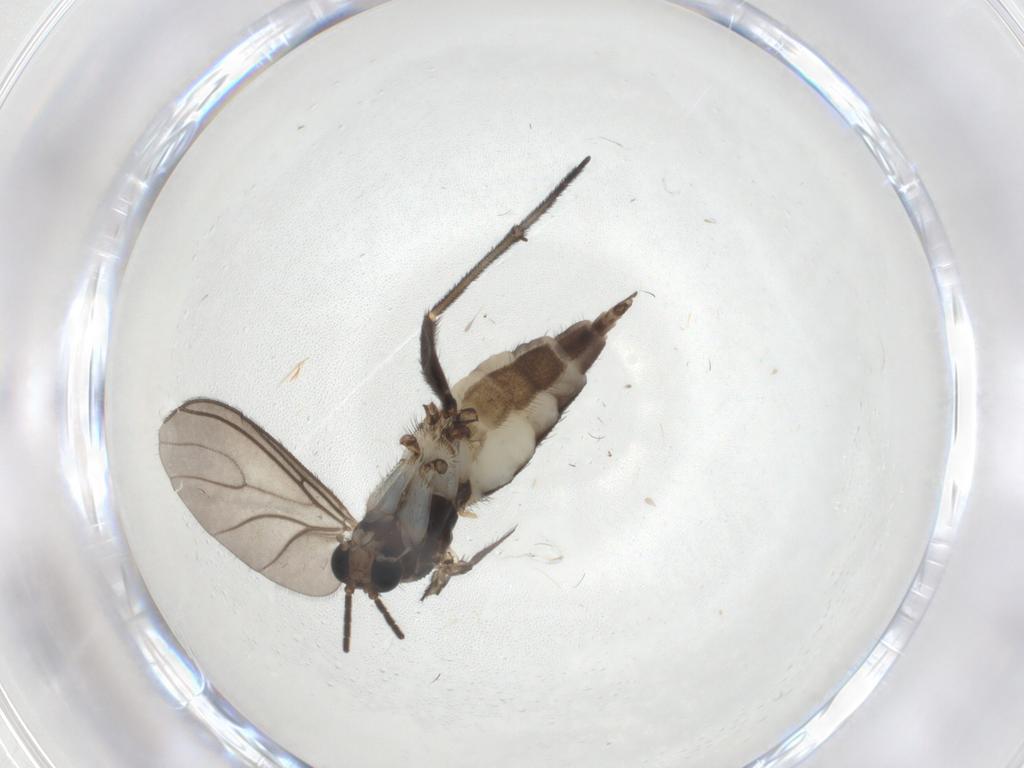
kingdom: Animalia
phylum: Arthropoda
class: Insecta
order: Diptera
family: Sciaridae
